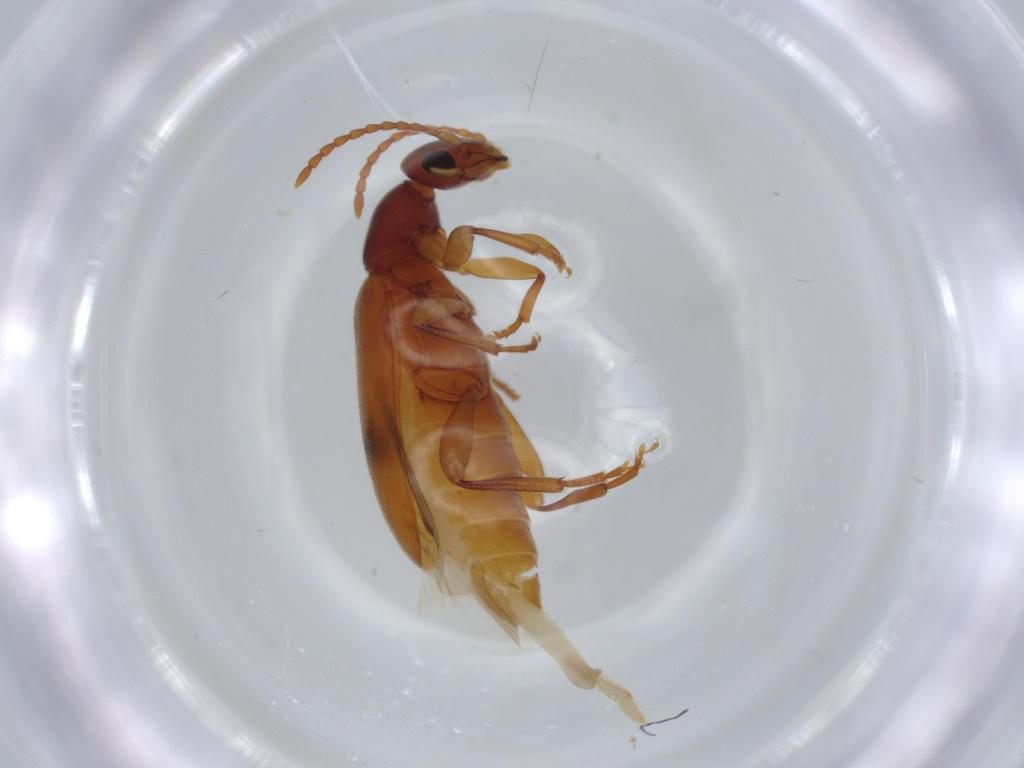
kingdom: Animalia
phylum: Arthropoda
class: Insecta
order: Coleoptera
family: Anthicidae
